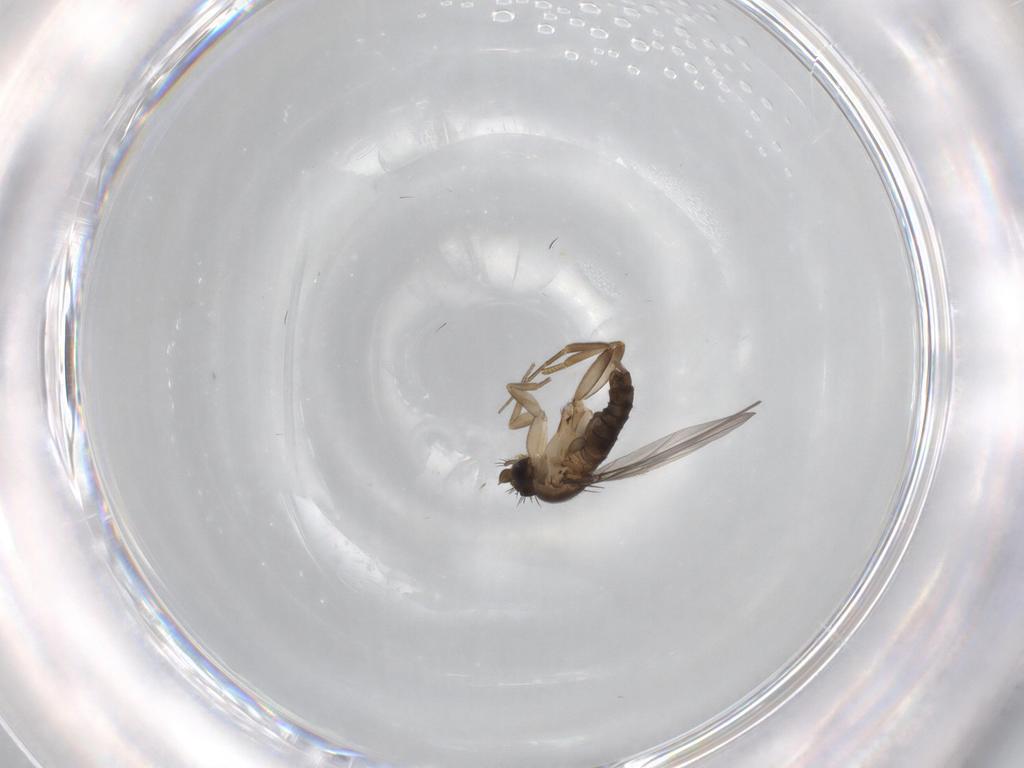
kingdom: Animalia
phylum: Arthropoda
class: Insecta
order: Diptera
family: Phoridae
